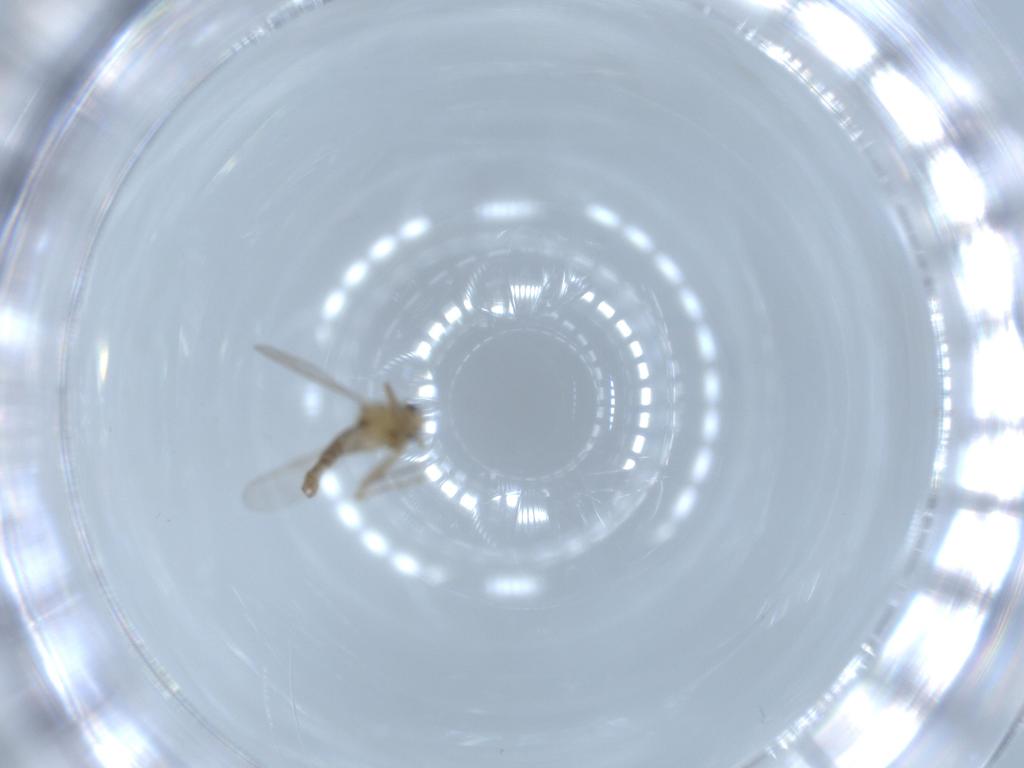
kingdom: Animalia
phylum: Arthropoda
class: Insecta
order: Diptera
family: Chironomidae
